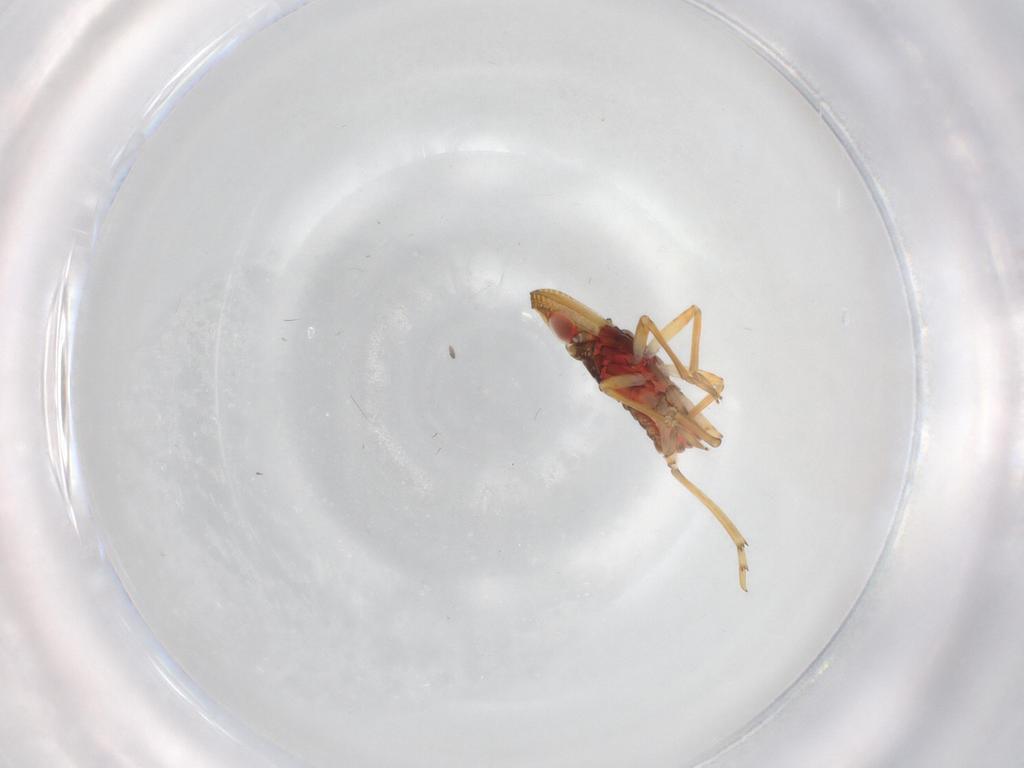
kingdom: Animalia
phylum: Arthropoda
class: Insecta
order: Hemiptera
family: Fulgoroidea_incertae_sedis
